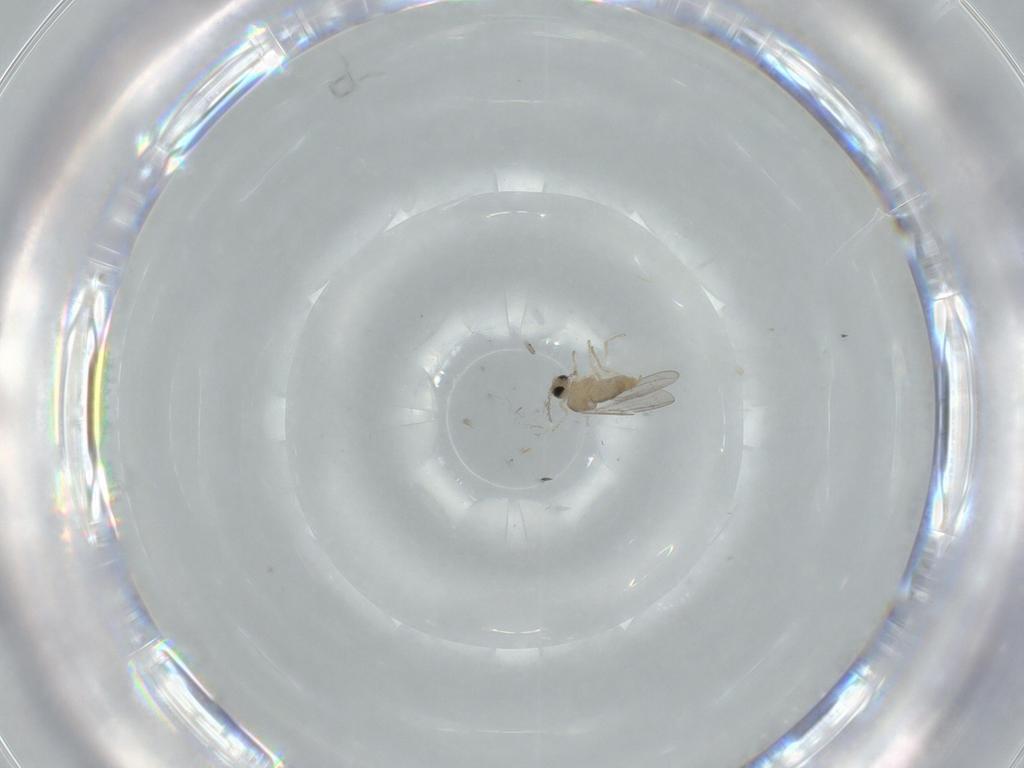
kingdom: Animalia
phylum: Arthropoda
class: Insecta
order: Diptera
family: Cecidomyiidae
